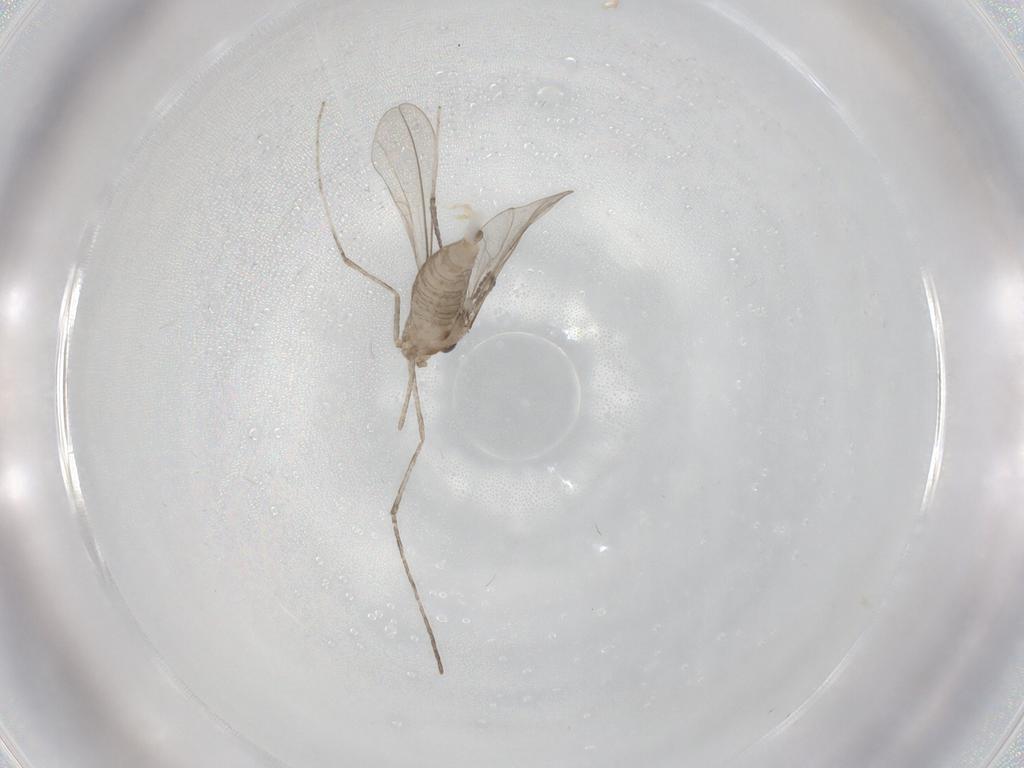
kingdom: Animalia
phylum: Arthropoda
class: Insecta
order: Diptera
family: Cecidomyiidae
